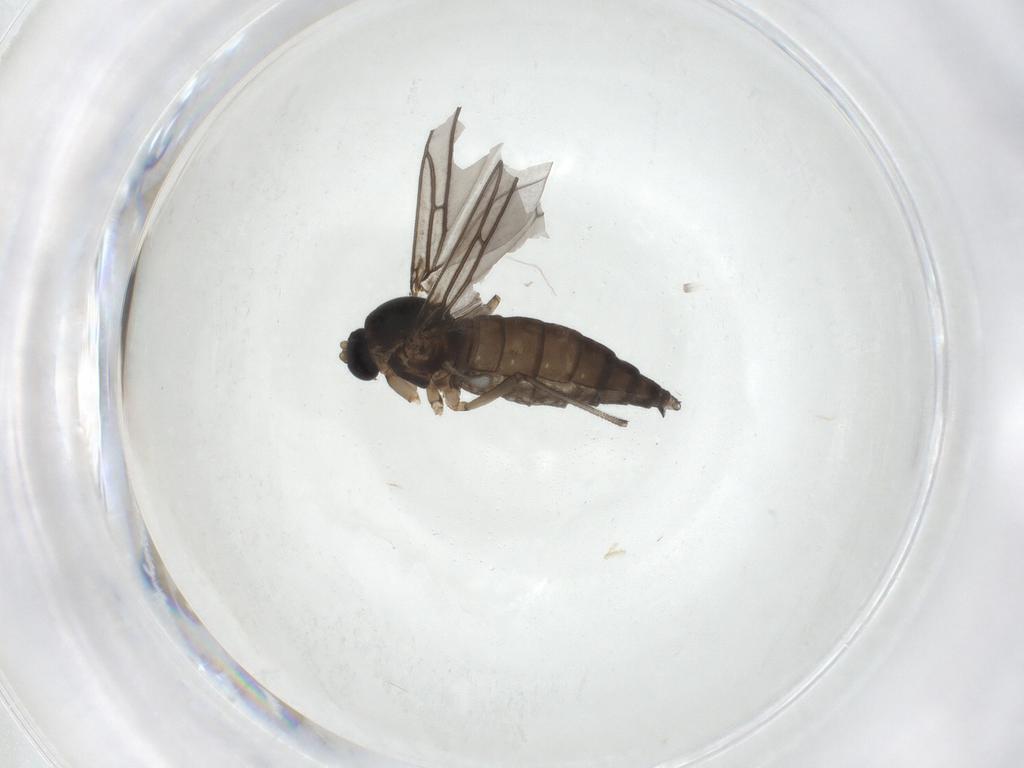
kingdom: Animalia
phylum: Arthropoda
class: Insecta
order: Diptera
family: Sciaridae
